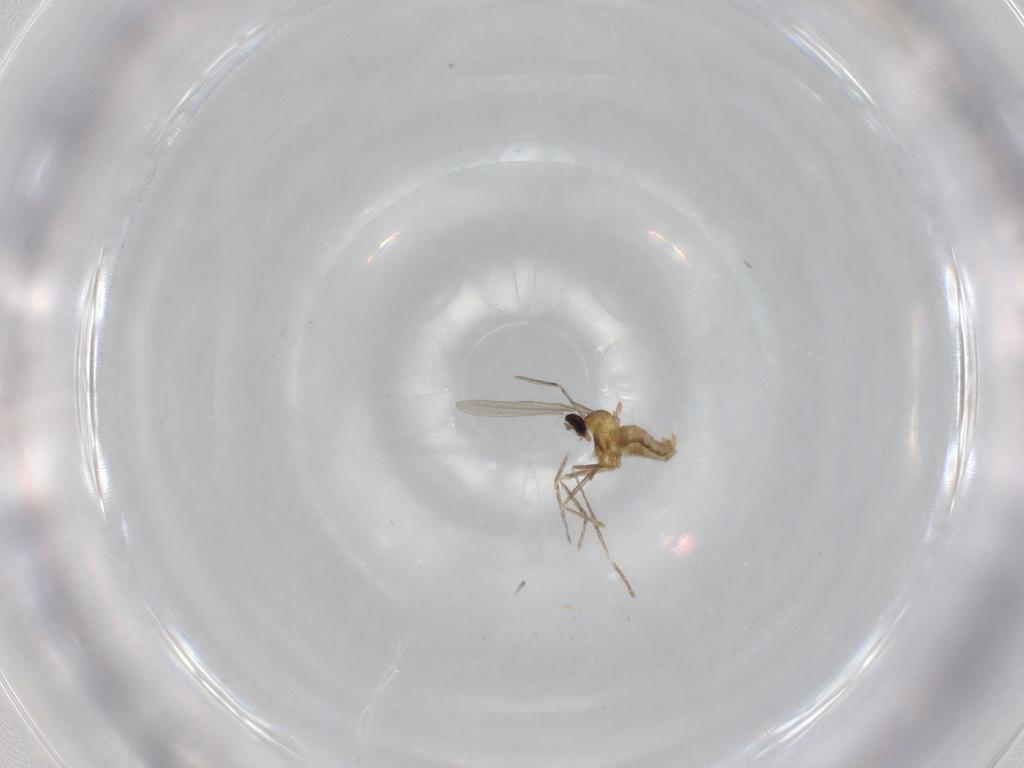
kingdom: Animalia
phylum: Arthropoda
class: Insecta
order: Diptera
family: Cecidomyiidae
